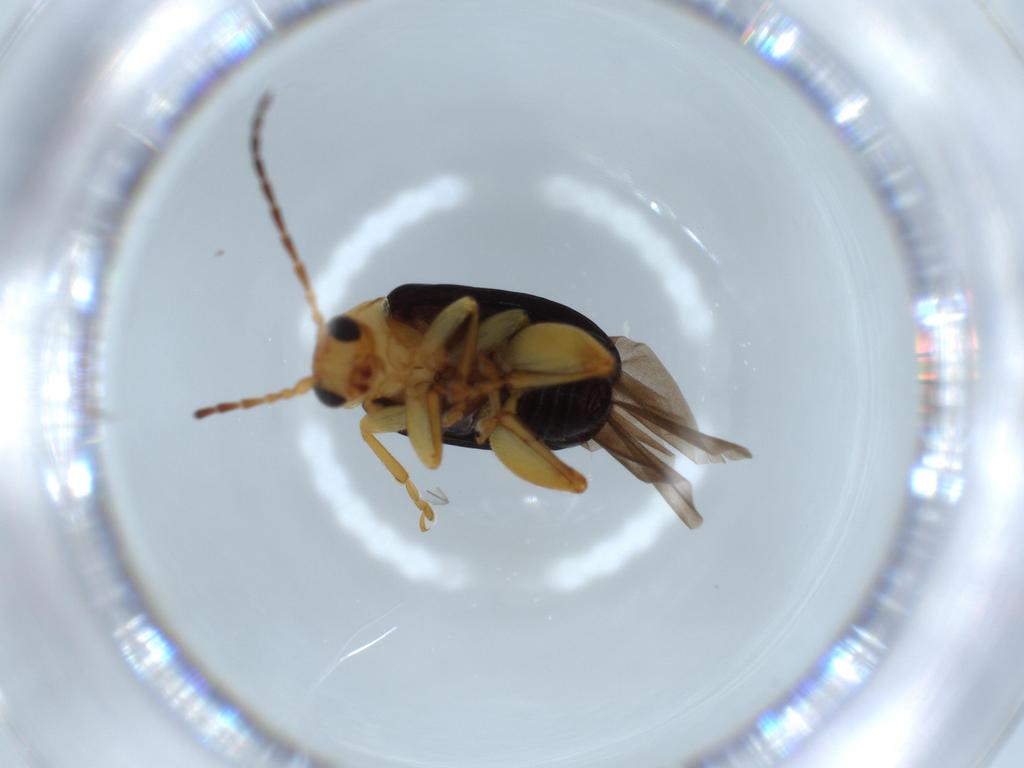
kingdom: Animalia
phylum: Arthropoda
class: Insecta
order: Coleoptera
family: Chrysomelidae
